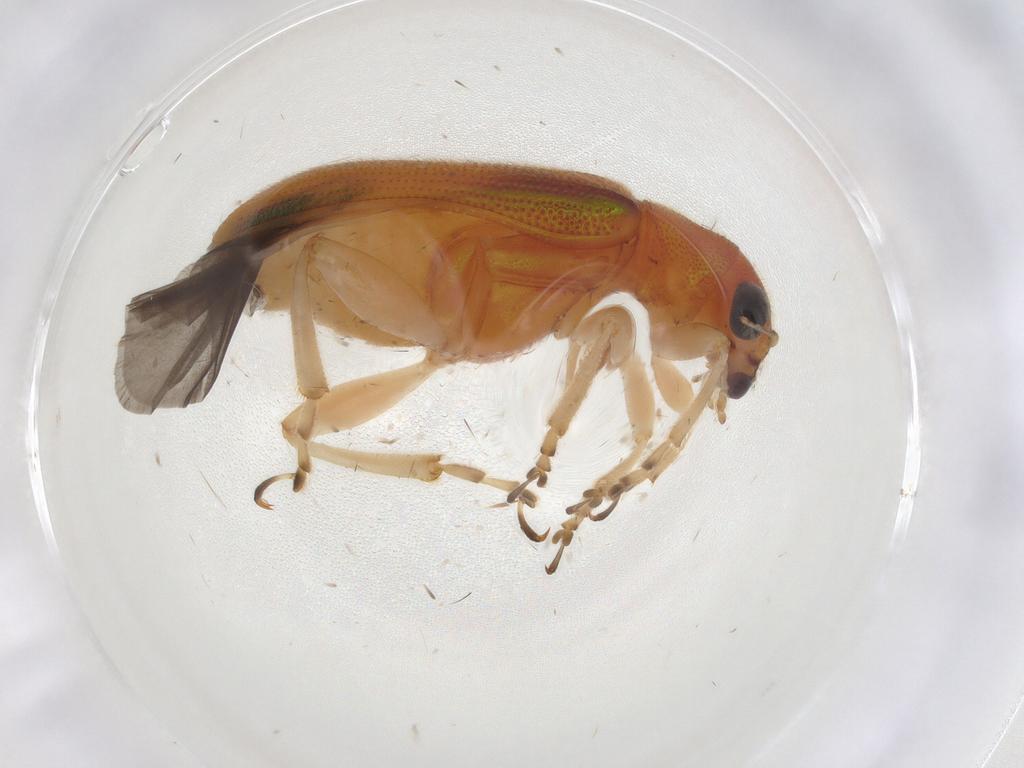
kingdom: Animalia
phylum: Arthropoda
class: Insecta
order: Coleoptera
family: Chrysomelidae
